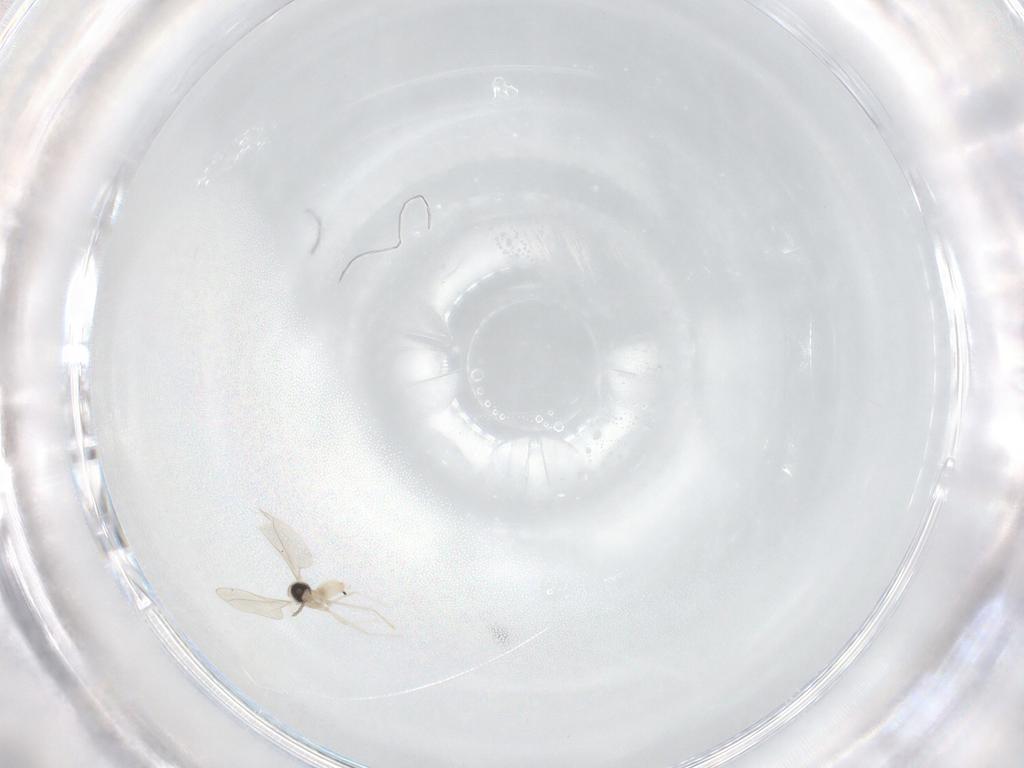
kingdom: Animalia
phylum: Arthropoda
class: Insecta
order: Diptera
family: Cecidomyiidae
